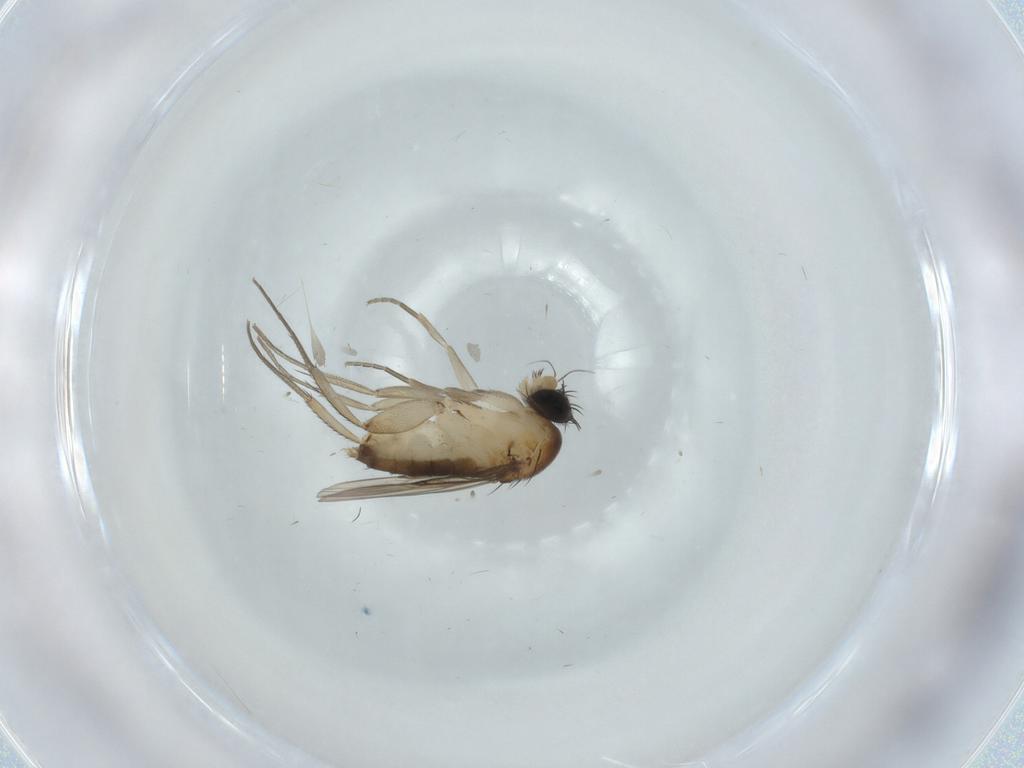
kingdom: Animalia
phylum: Arthropoda
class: Insecta
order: Diptera
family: Phoridae
